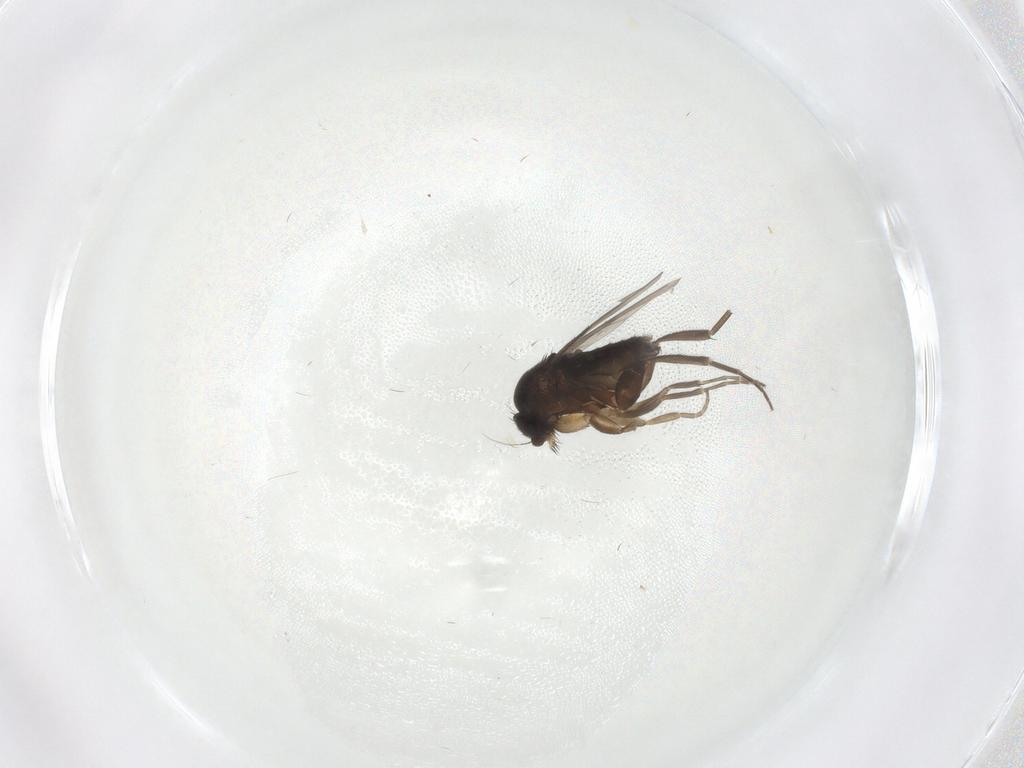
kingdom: Animalia
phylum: Arthropoda
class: Insecta
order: Diptera
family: Phoridae
